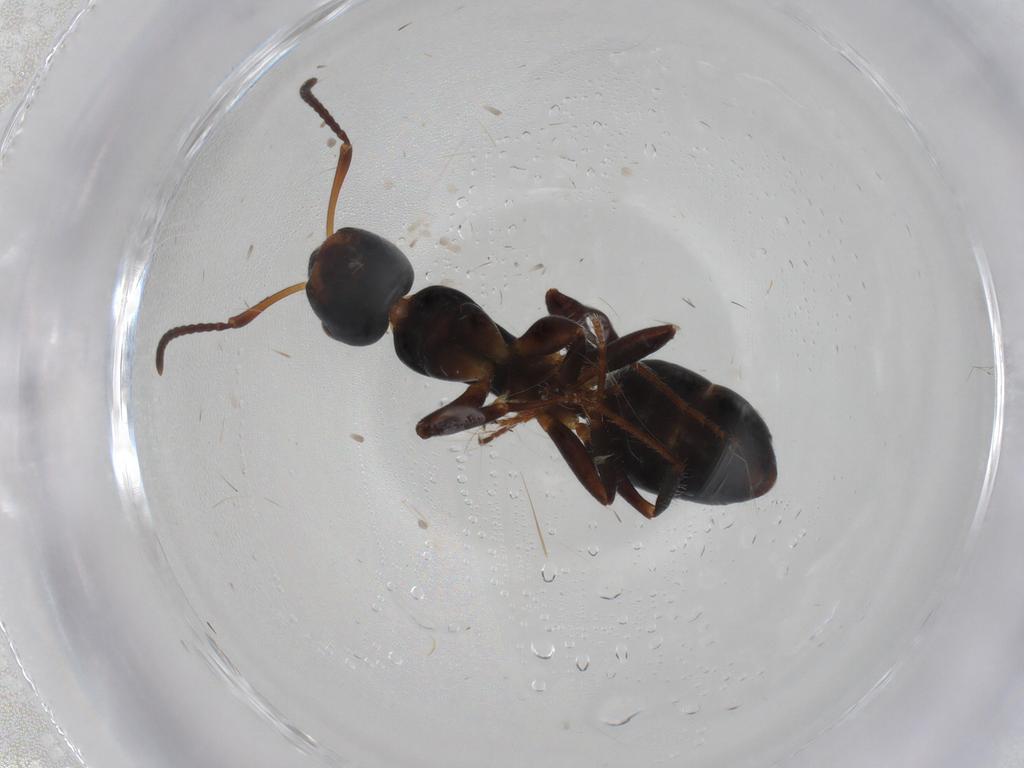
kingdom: Animalia
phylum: Arthropoda
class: Insecta
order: Hymenoptera
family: Formicidae
